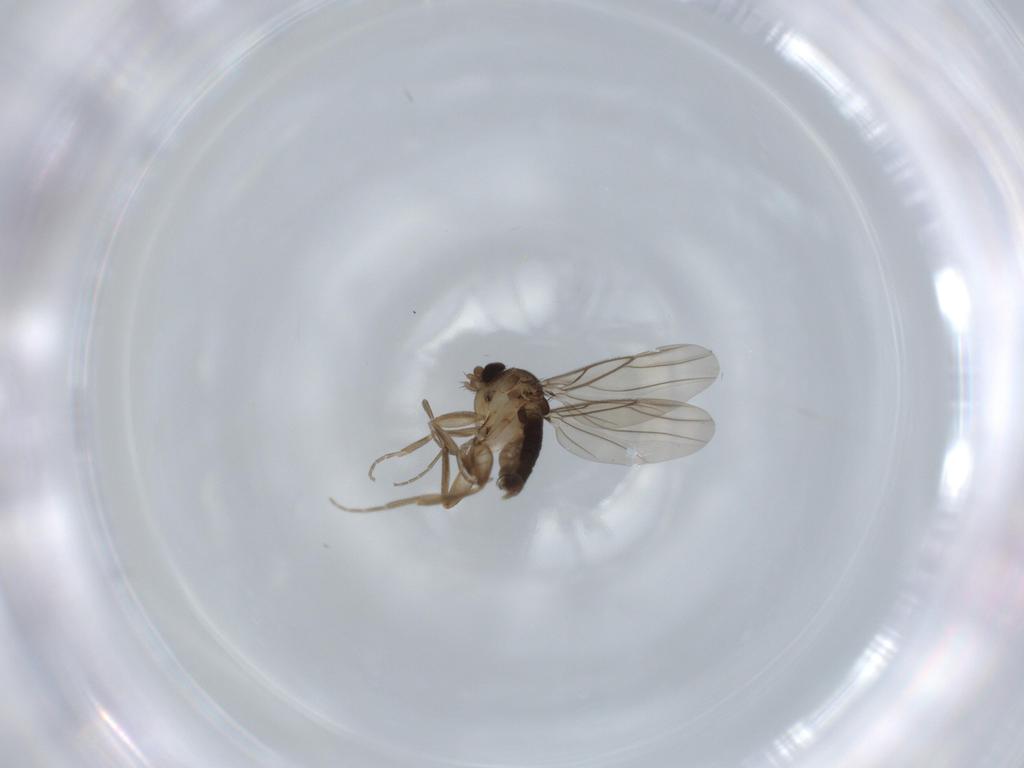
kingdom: Animalia
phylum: Arthropoda
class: Insecta
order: Diptera
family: Phoridae
